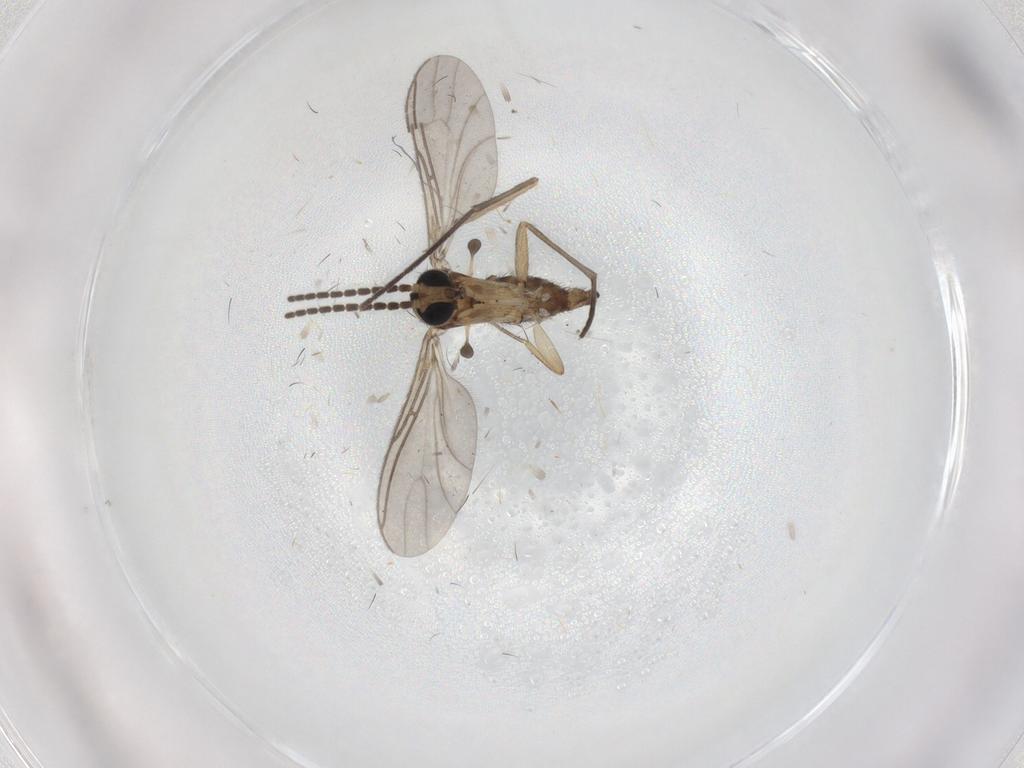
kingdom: Animalia
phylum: Arthropoda
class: Insecta
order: Diptera
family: Sciaridae
